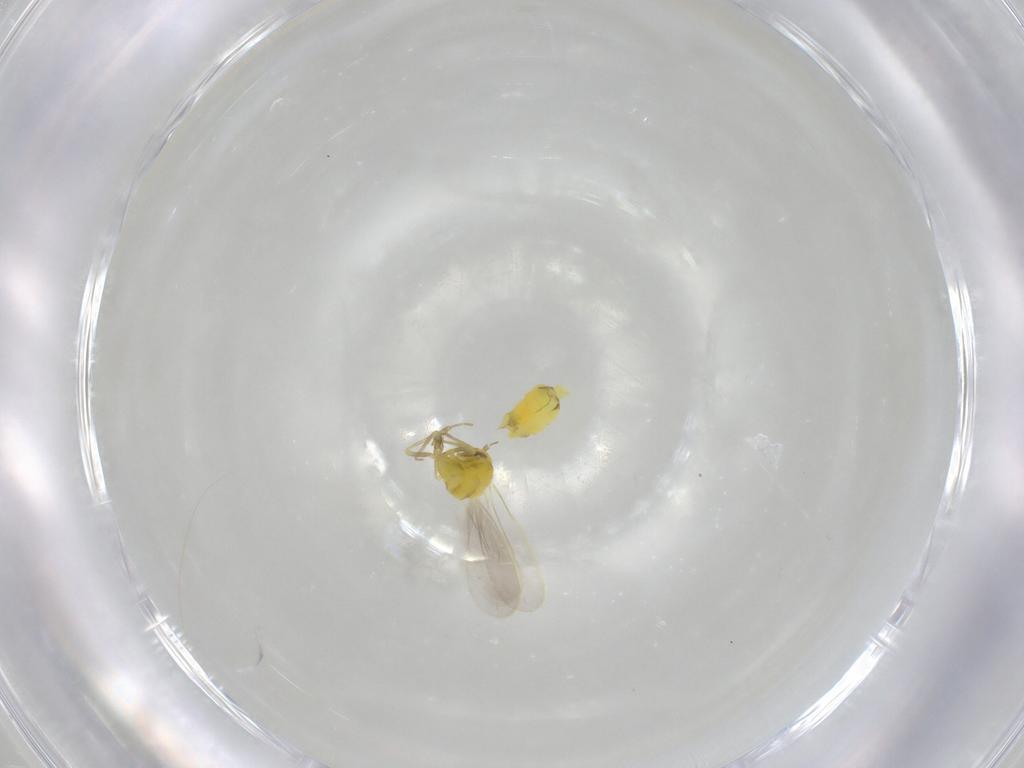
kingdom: Animalia
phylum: Arthropoda
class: Insecta
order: Hemiptera
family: Aleyrodidae
